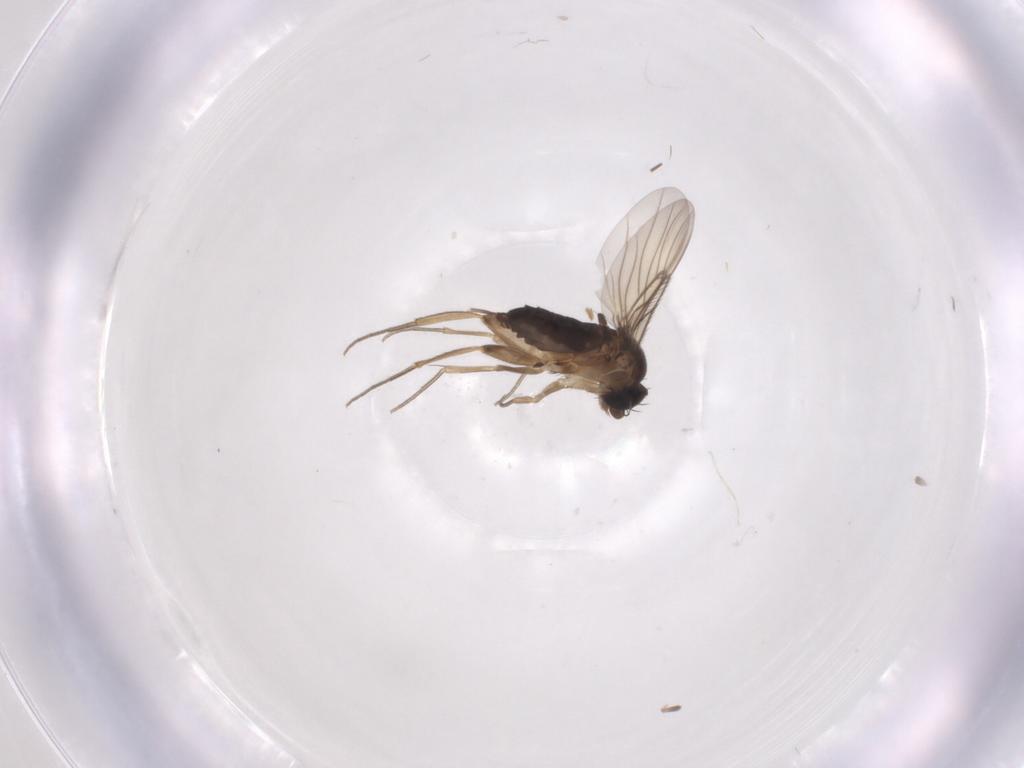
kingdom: Animalia
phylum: Arthropoda
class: Insecta
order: Diptera
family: Phoridae
